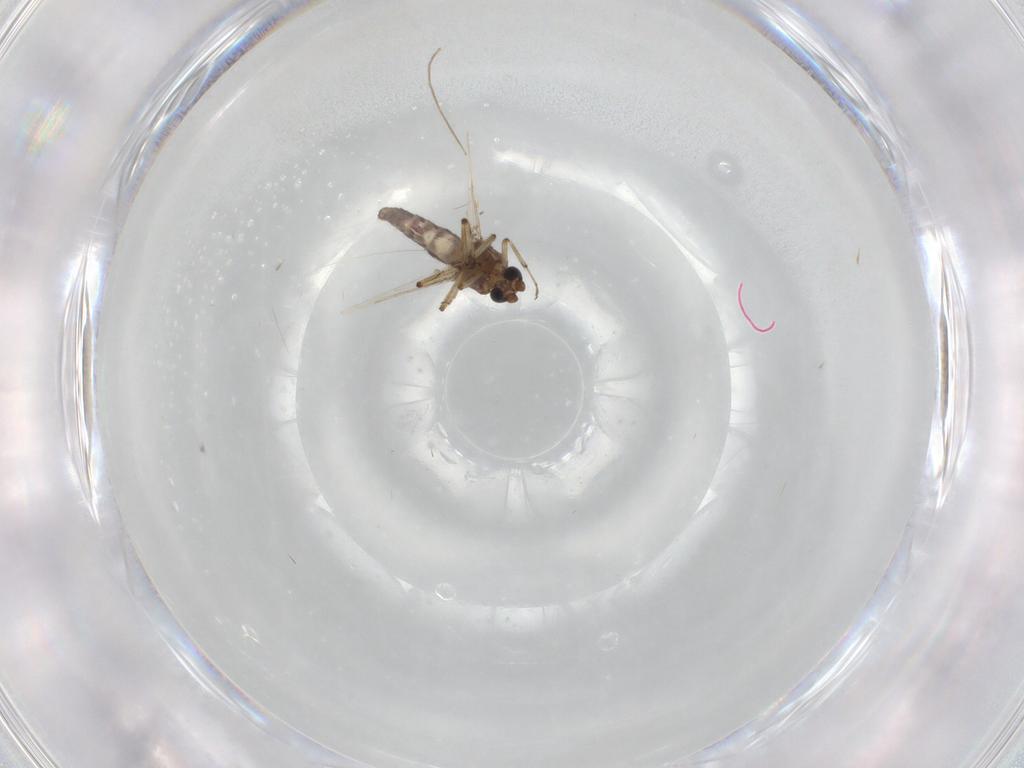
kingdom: Animalia
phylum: Arthropoda
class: Insecta
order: Diptera
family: Ceratopogonidae
